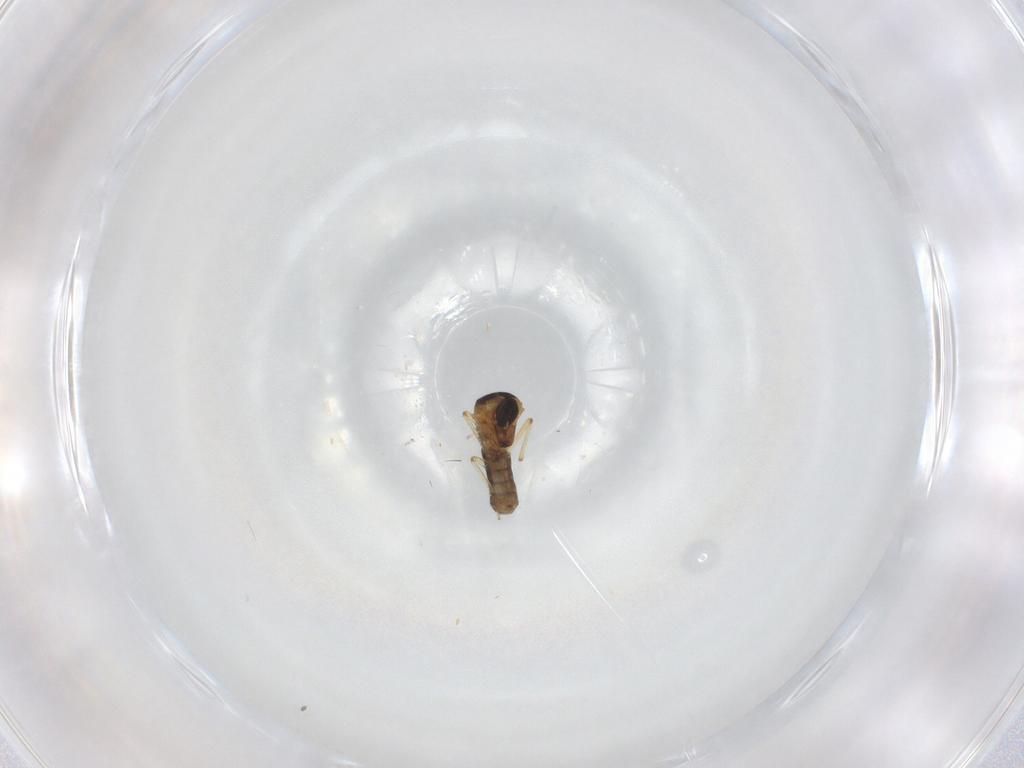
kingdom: Animalia
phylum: Arthropoda
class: Insecta
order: Diptera
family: Ceratopogonidae
